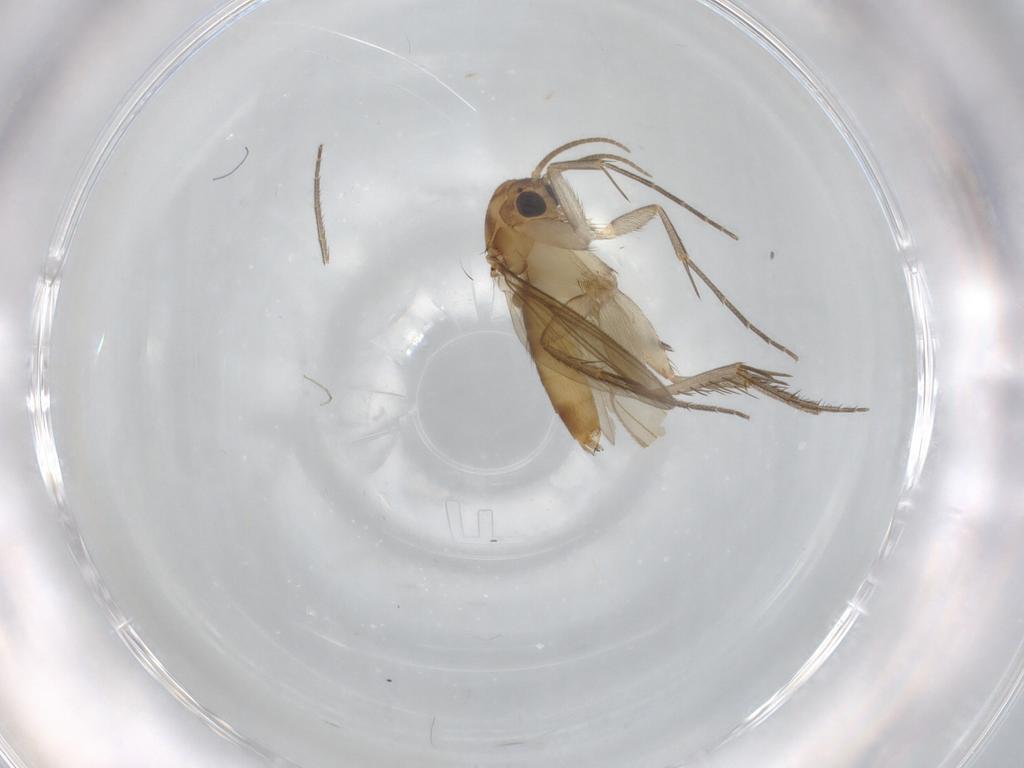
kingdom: Animalia
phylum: Arthropoda
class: Insecta
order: Diptera
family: Mycetophilidae
